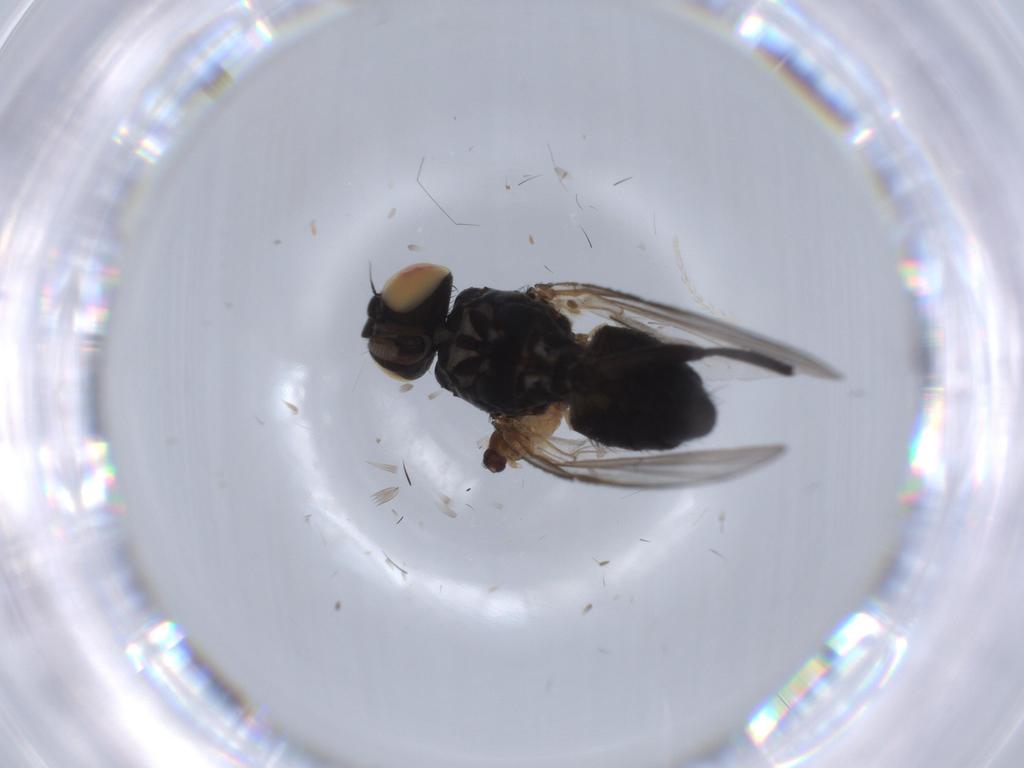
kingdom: Animalia
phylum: Arthropoda
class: Insecta
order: Diptera
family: Cecidomyiidae
